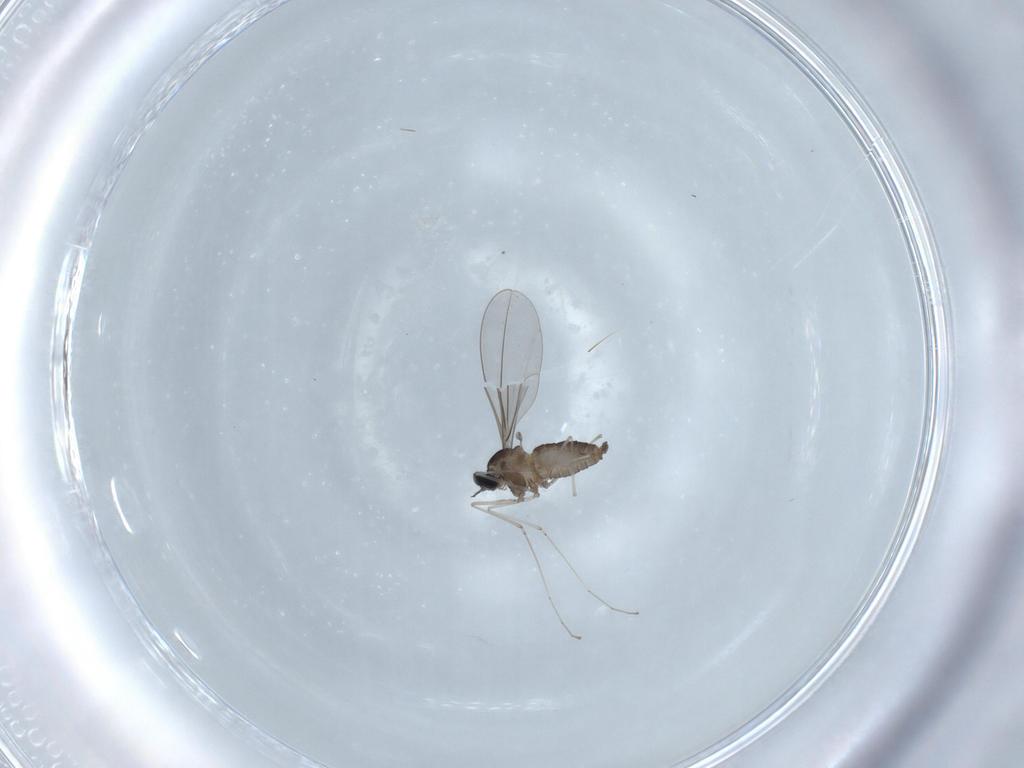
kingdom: Animalia
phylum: Arthropoda
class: Insecta
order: Diptera
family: Cecidomyiidae
